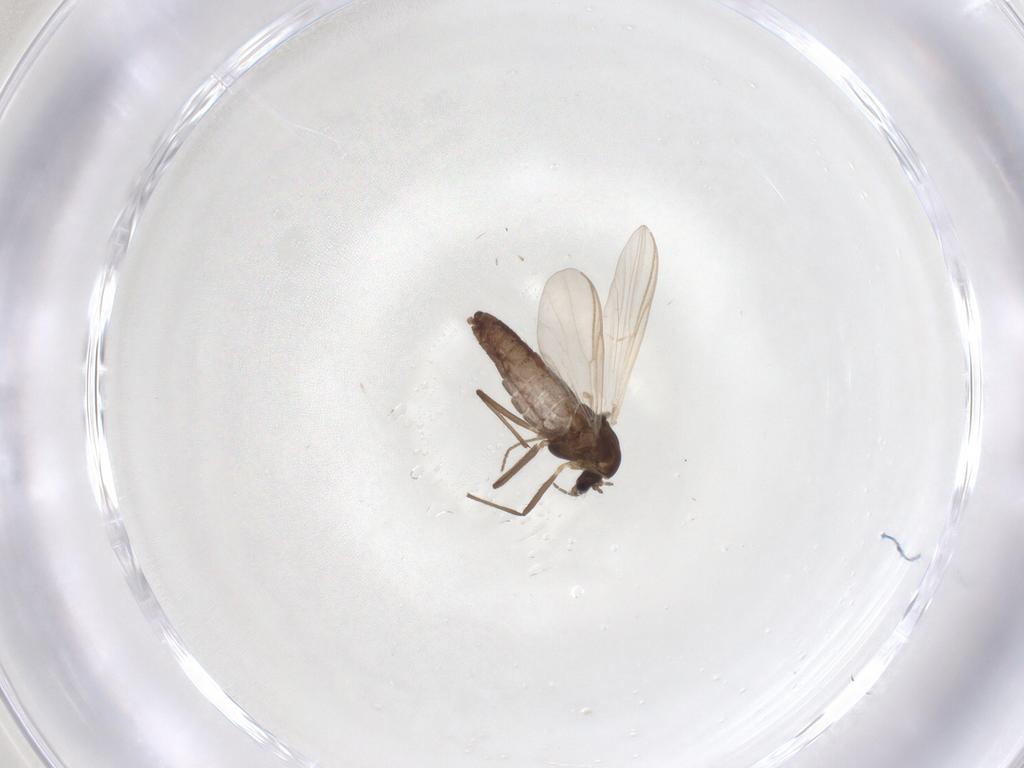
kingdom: Animalia
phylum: Arthropoda
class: Insecta
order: Diptera
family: Chironomidae
